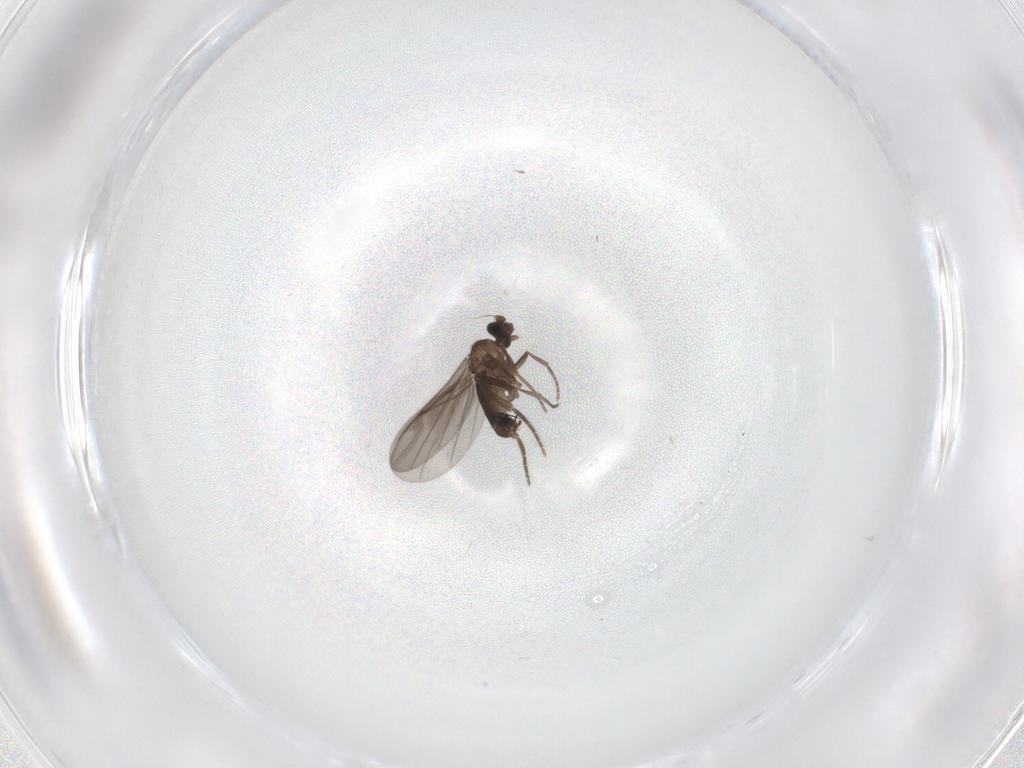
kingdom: Animalia
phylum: Arthropoda
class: Insecta
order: Diptera
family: Phoridae
